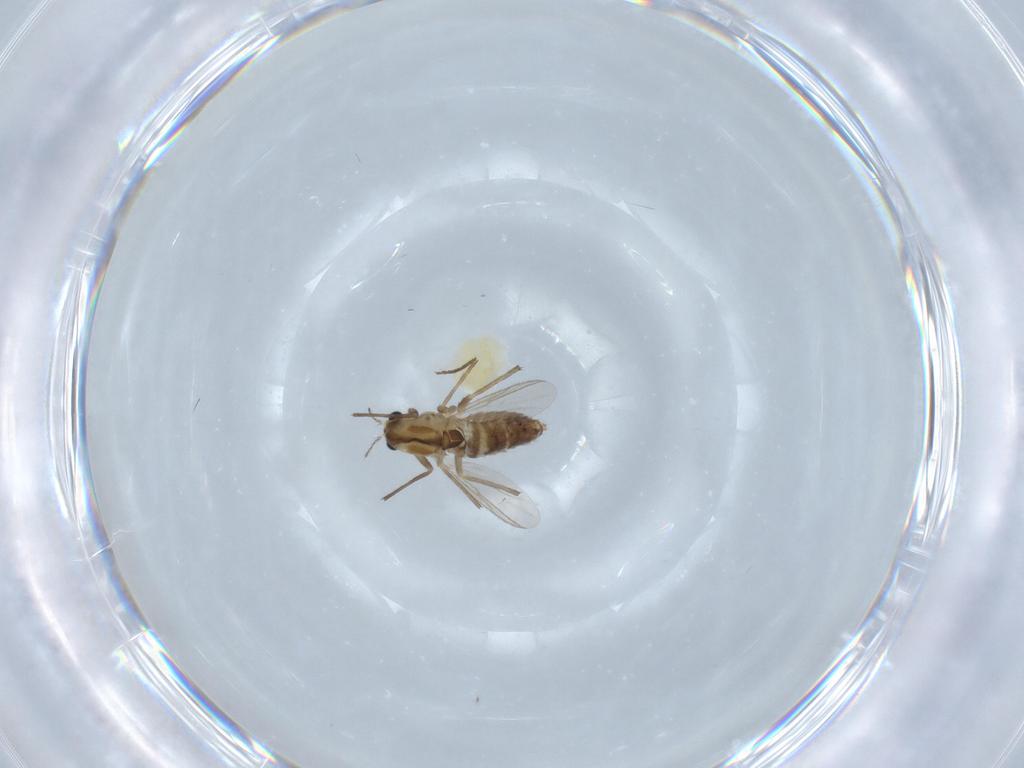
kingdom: Animalia
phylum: Arthropoda
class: Insecta
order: Diptera
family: Chironomidae
